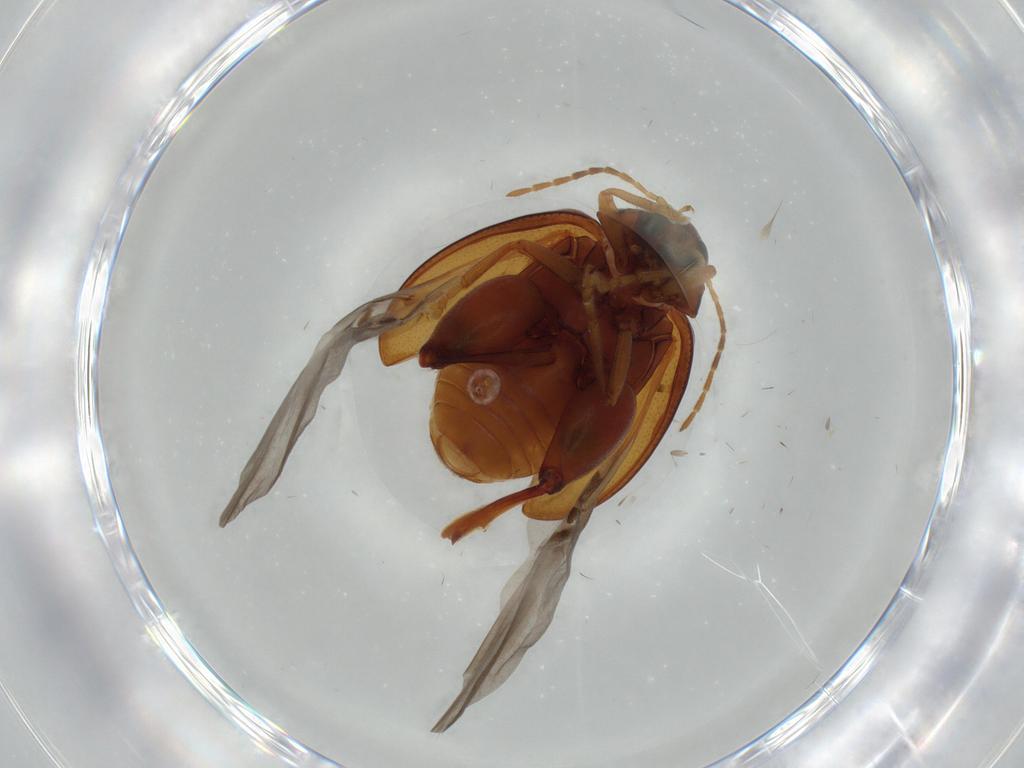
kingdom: Animalia
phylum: Arthropoda
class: Insecta
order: Coleoptera
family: Chrysomelidae
